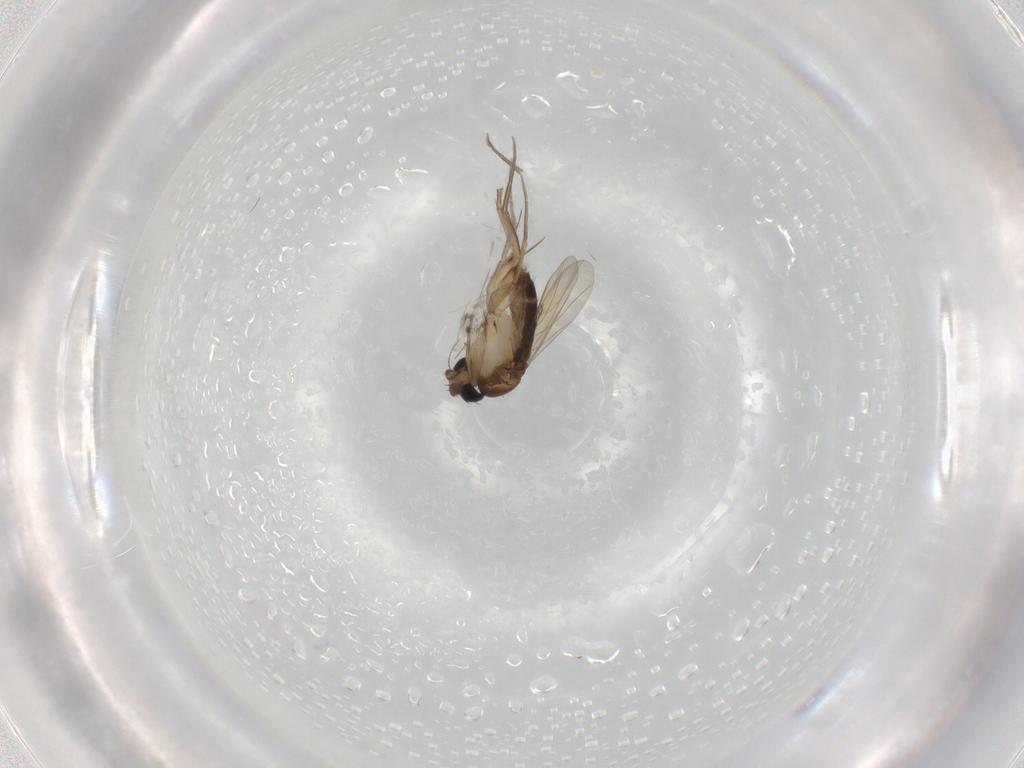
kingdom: Animalia
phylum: Arthropoda
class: Insecta
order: Diptera
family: Phoridae
